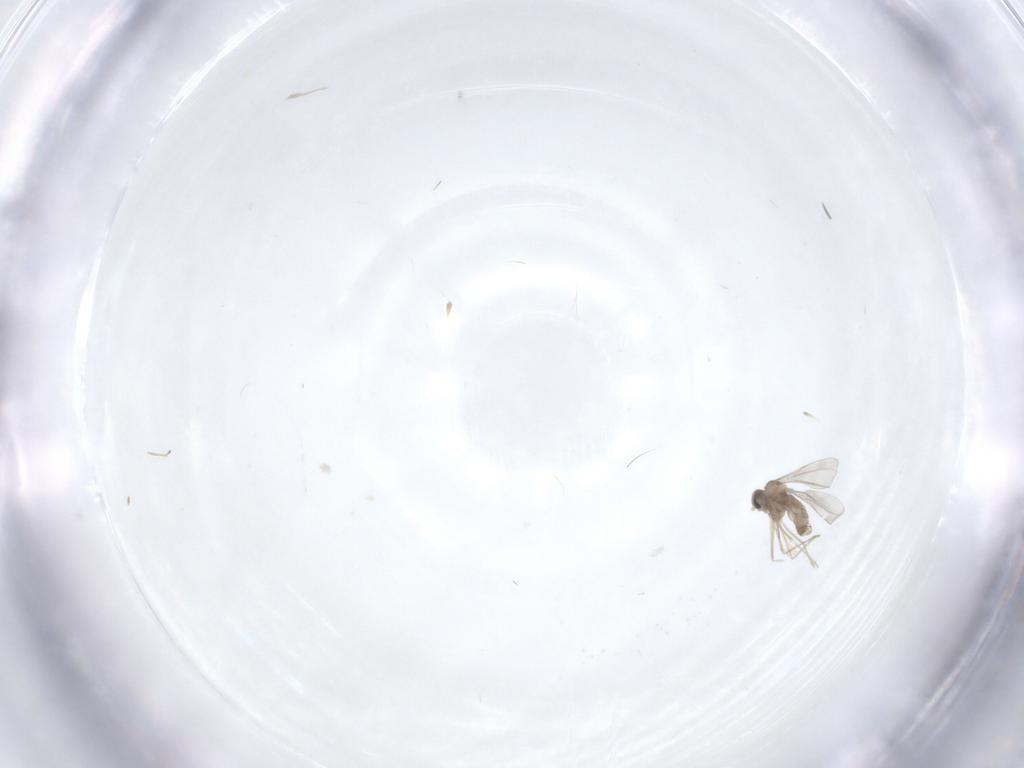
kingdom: Animalia
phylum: Arthropoda
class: Insecta
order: Diptera
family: Cecidomyiidae
